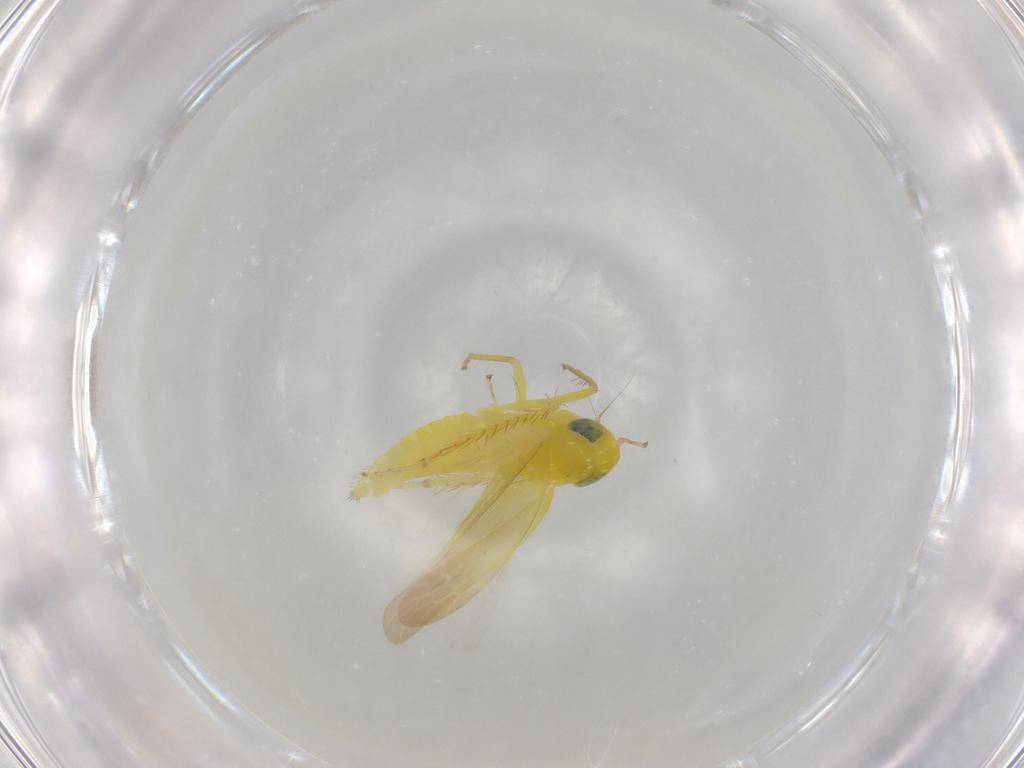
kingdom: Animalia
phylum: Arthropoda
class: Insecta
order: Hemiptera
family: Cicadellidae
